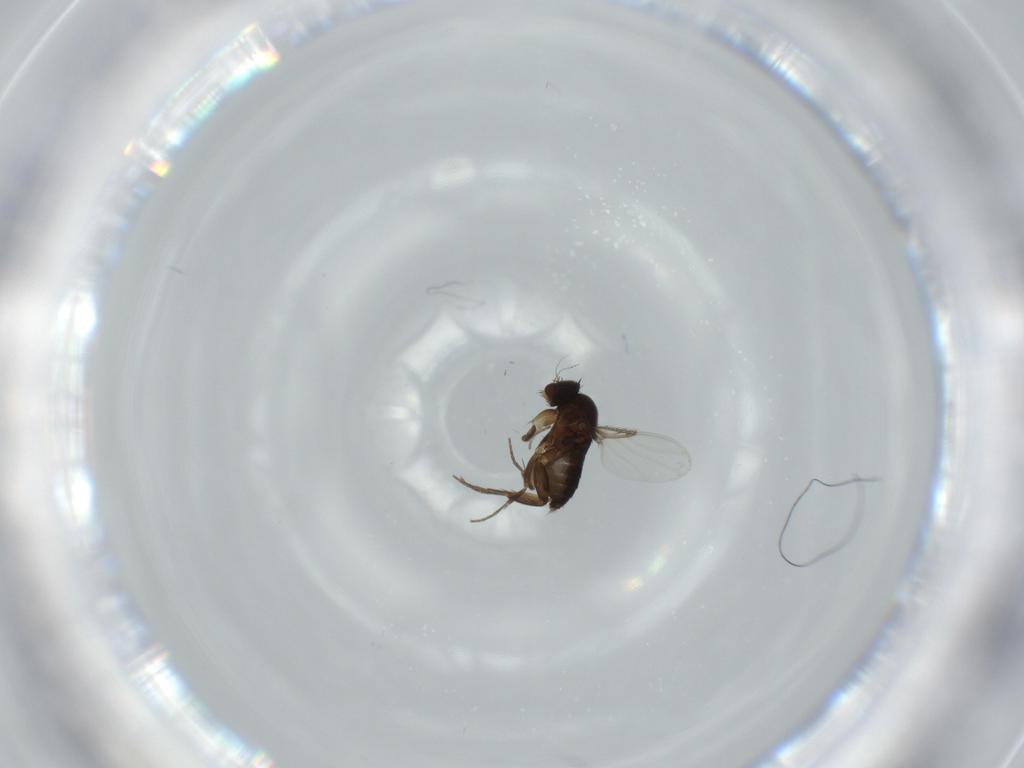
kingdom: Animalia
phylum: Arthropoda
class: Insecta
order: Diptera
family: Phoridae
